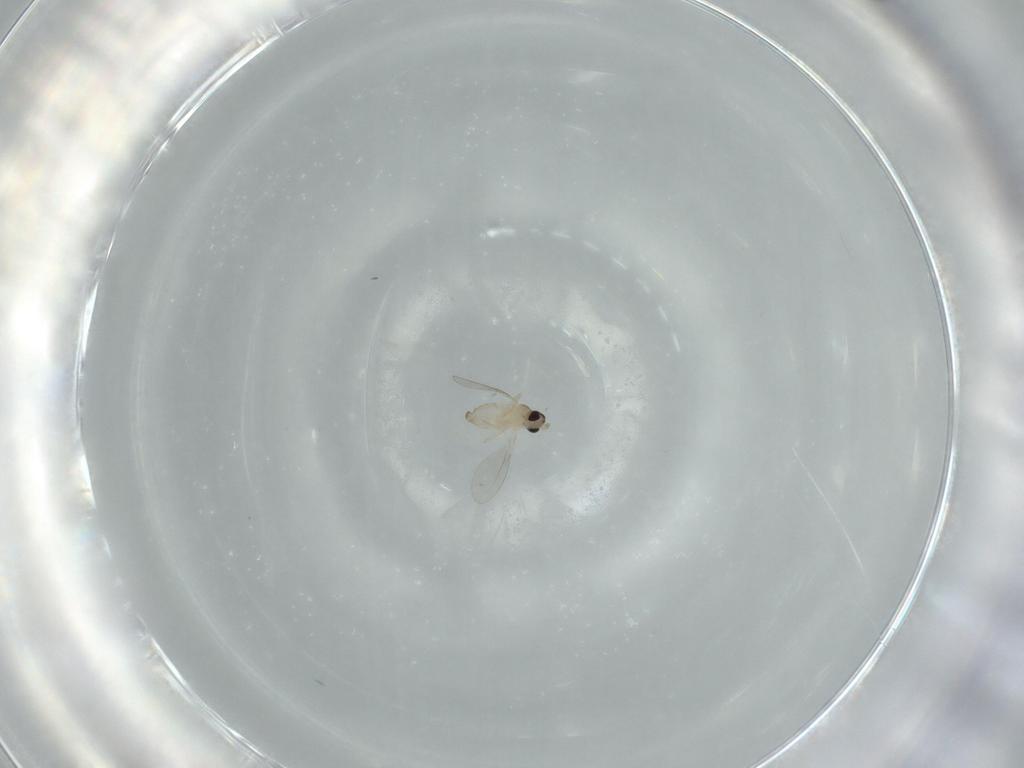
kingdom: Animalia
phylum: Arthropoda
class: Insecta
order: Diptera
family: Cecidomyiidae
